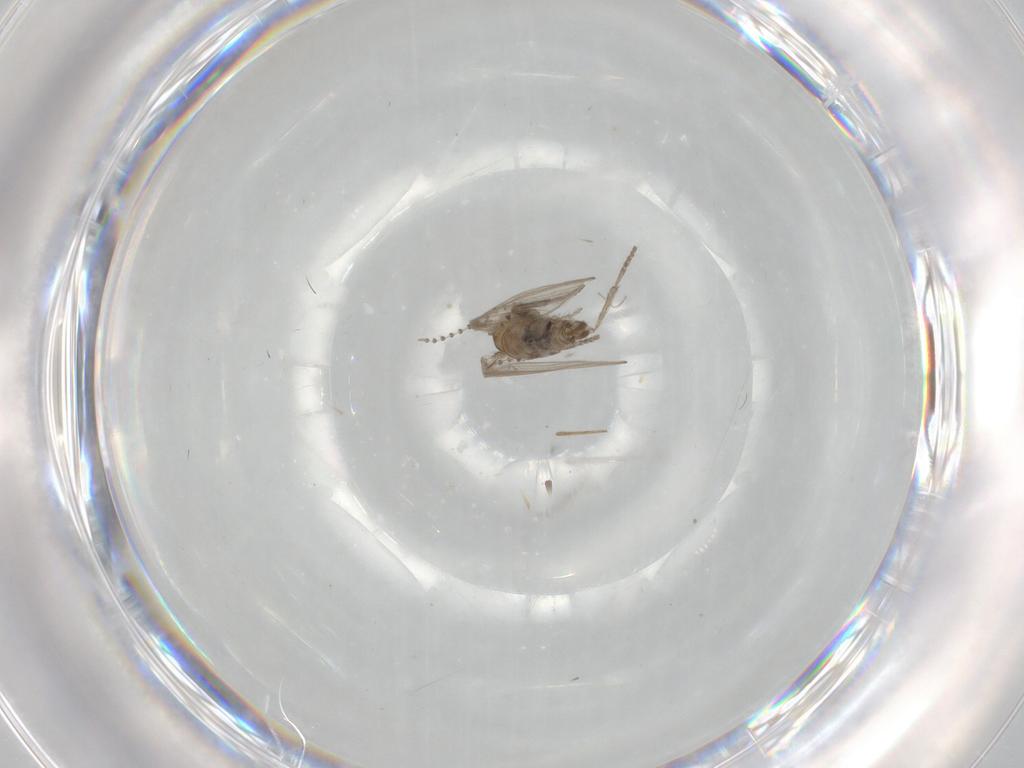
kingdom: Animalia
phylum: Arthropoda
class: Insecta
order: Diptera
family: Psychodidae
